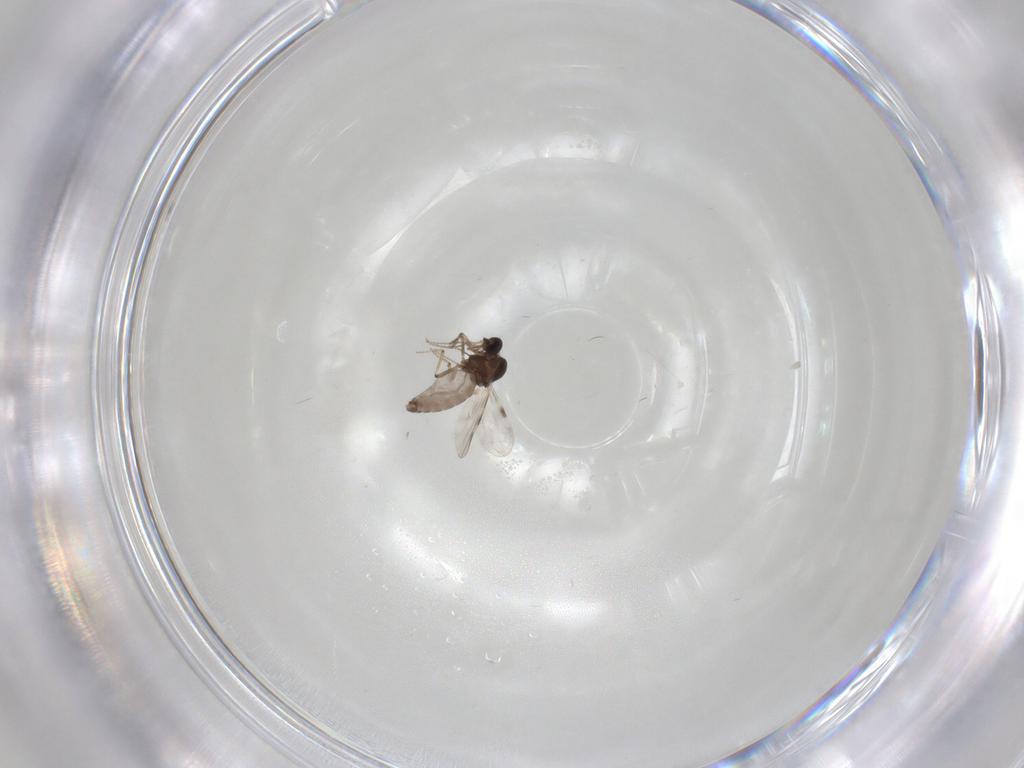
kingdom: Animalia
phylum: Arthropoda
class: Insecta
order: Diptera
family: Psychodidae
